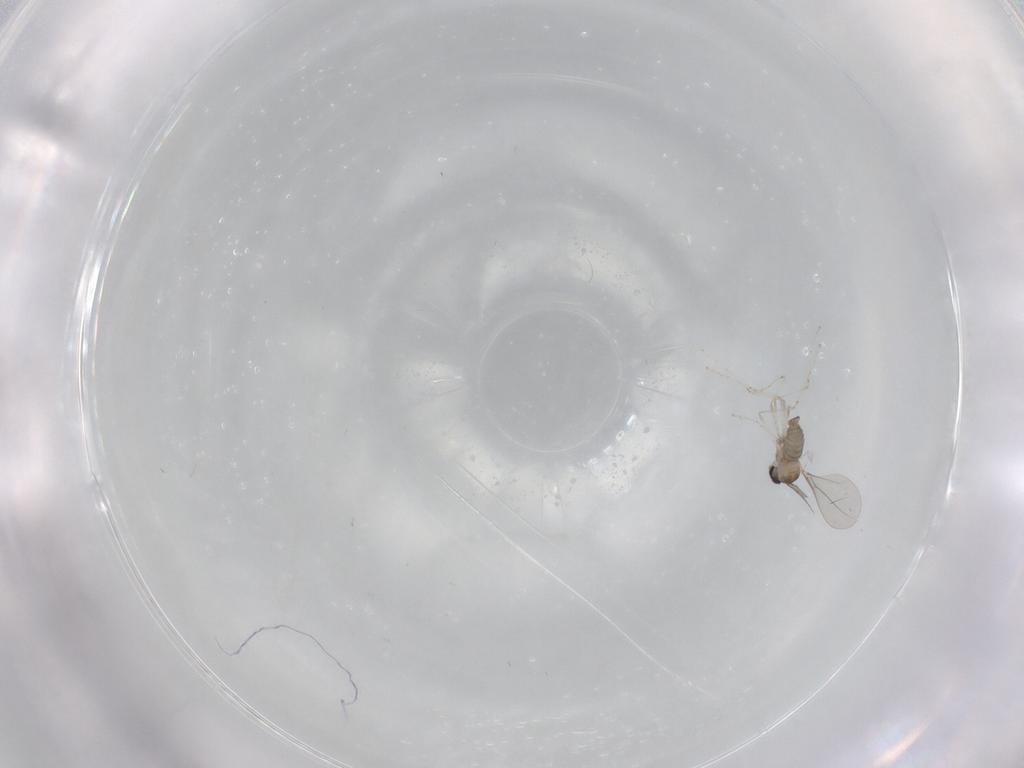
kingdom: Animalia
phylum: Arthropoda
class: Insecta
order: Diptera
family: Cecidomyiidae
